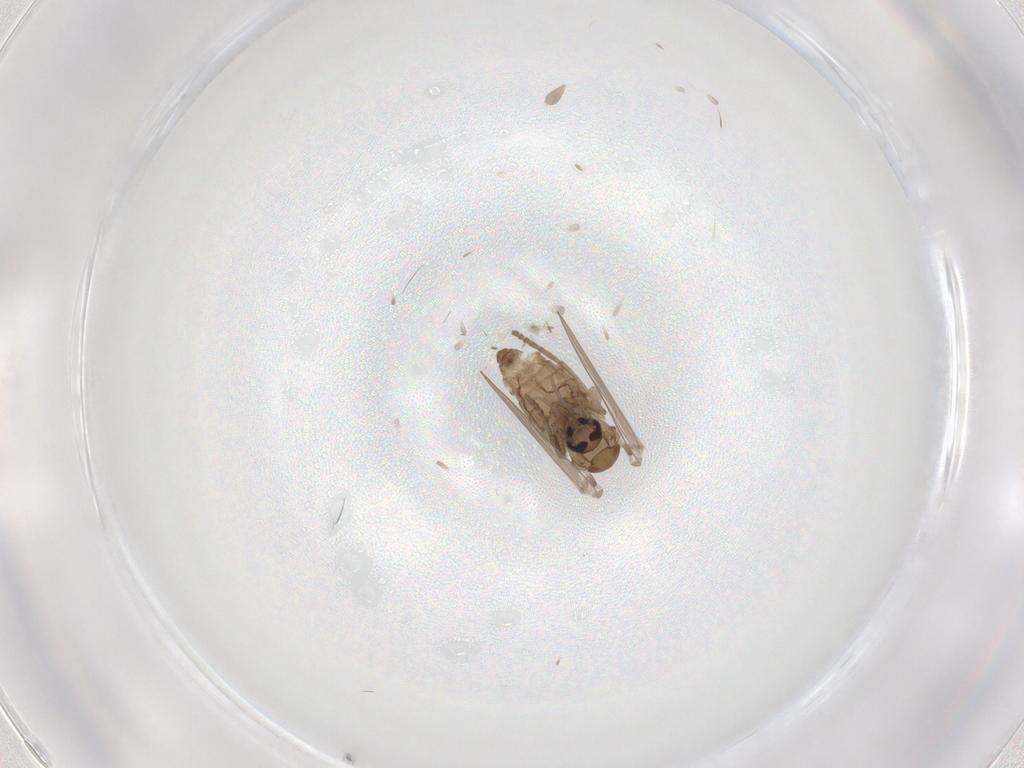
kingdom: Animalia
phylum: Arthropoda
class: Insecta
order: Diptera
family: Psychodidae
